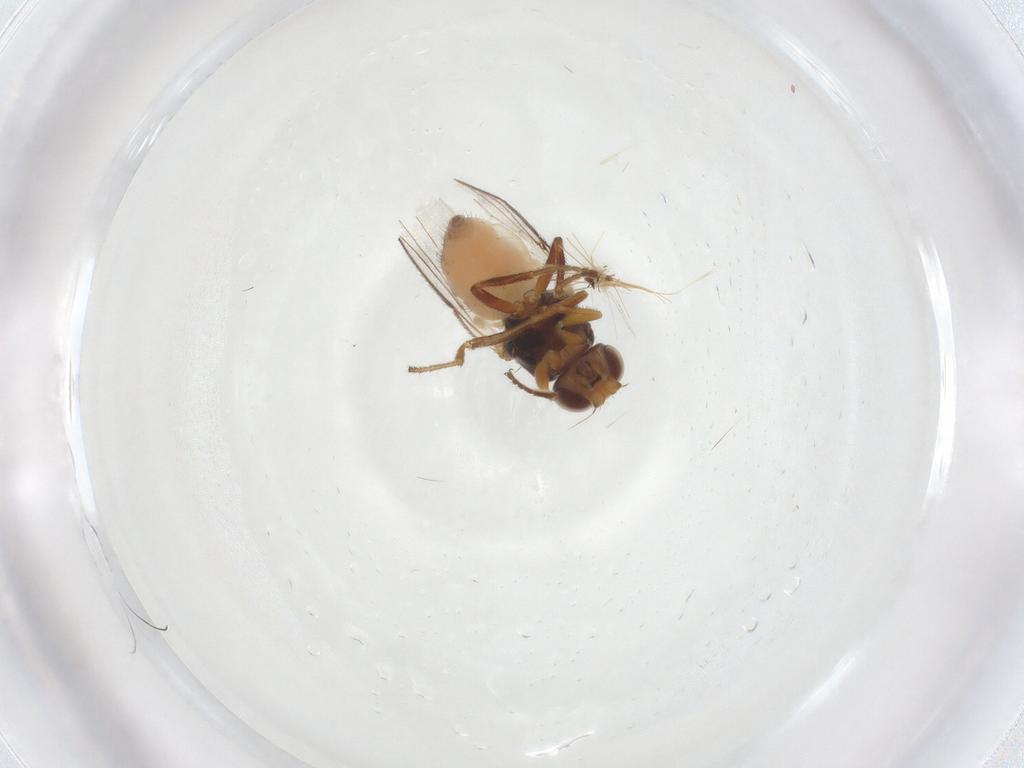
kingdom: Animalia
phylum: Arthropoda
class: Insecta
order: Diptera
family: Chloropidae
